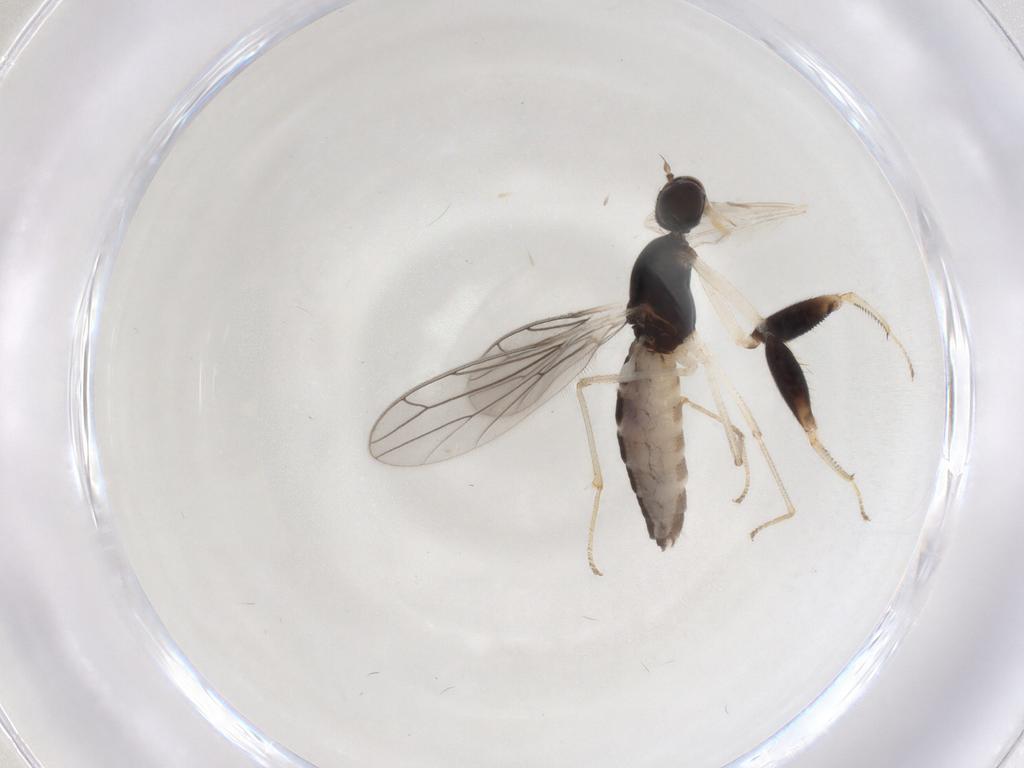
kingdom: Animalia
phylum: Arthropoda
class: Insecta
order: Diptera
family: Empididae
